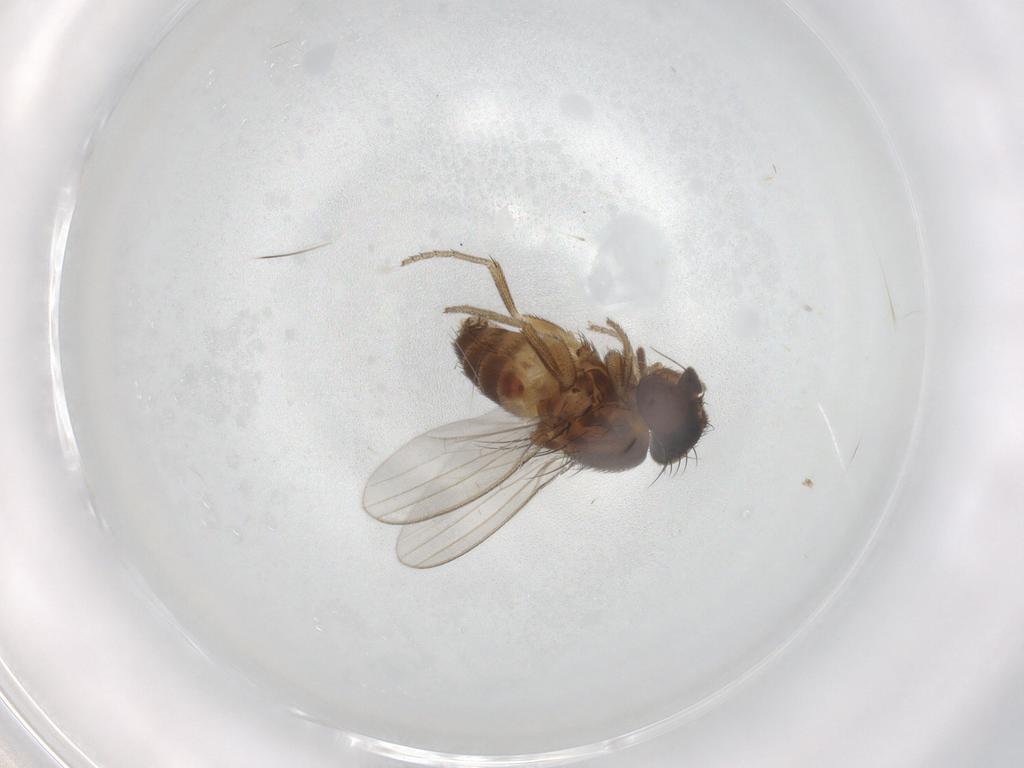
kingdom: Animalia
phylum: Arthropoda
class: Insecta
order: Diptera
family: Milichiidae
